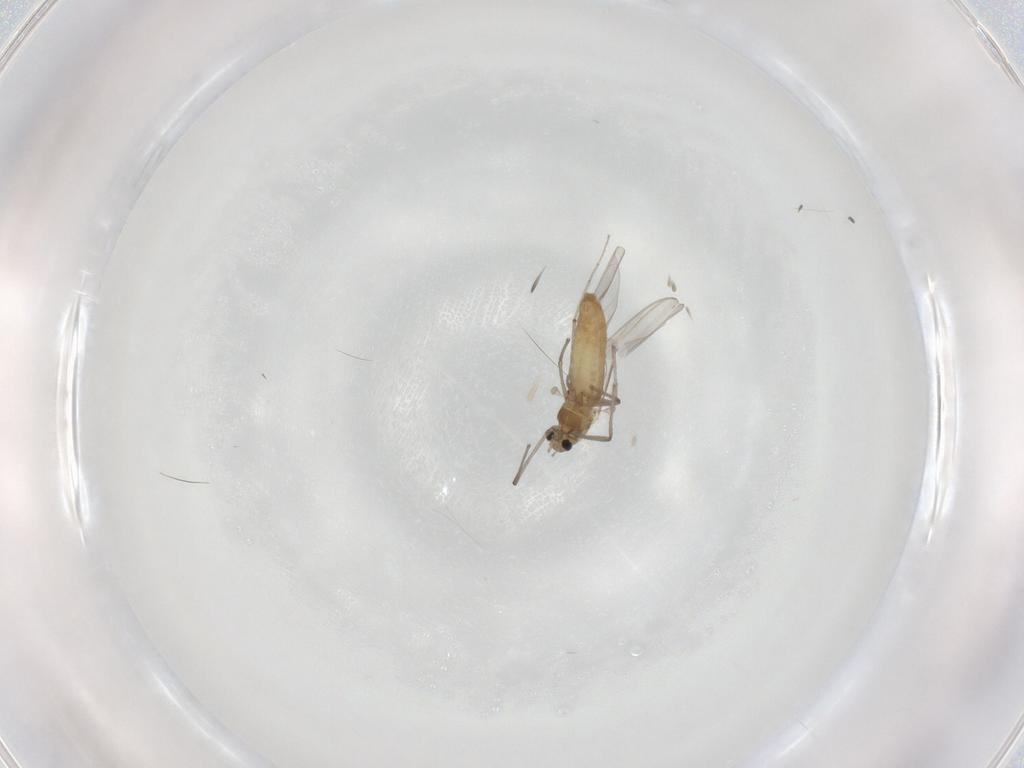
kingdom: Animalia
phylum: Arthropoda
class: Insecta
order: Diptera
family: Chironomidae
